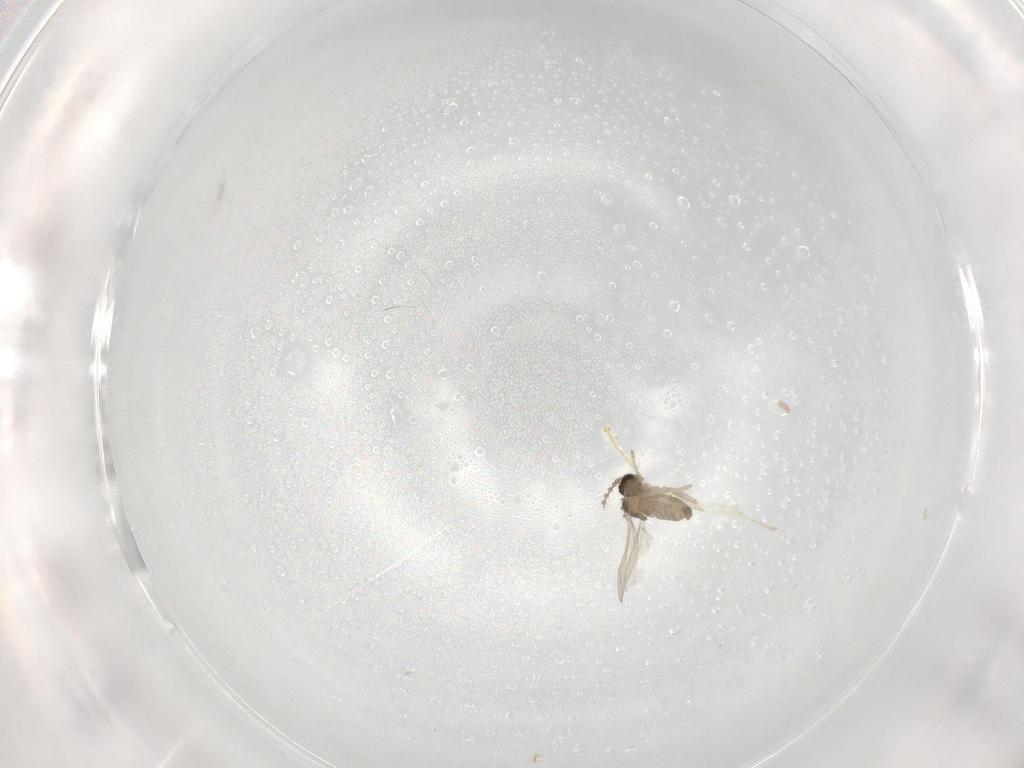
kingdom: Animalia
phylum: Arthropoda
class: Insecta
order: Diptera
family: Cecidomyiidae
